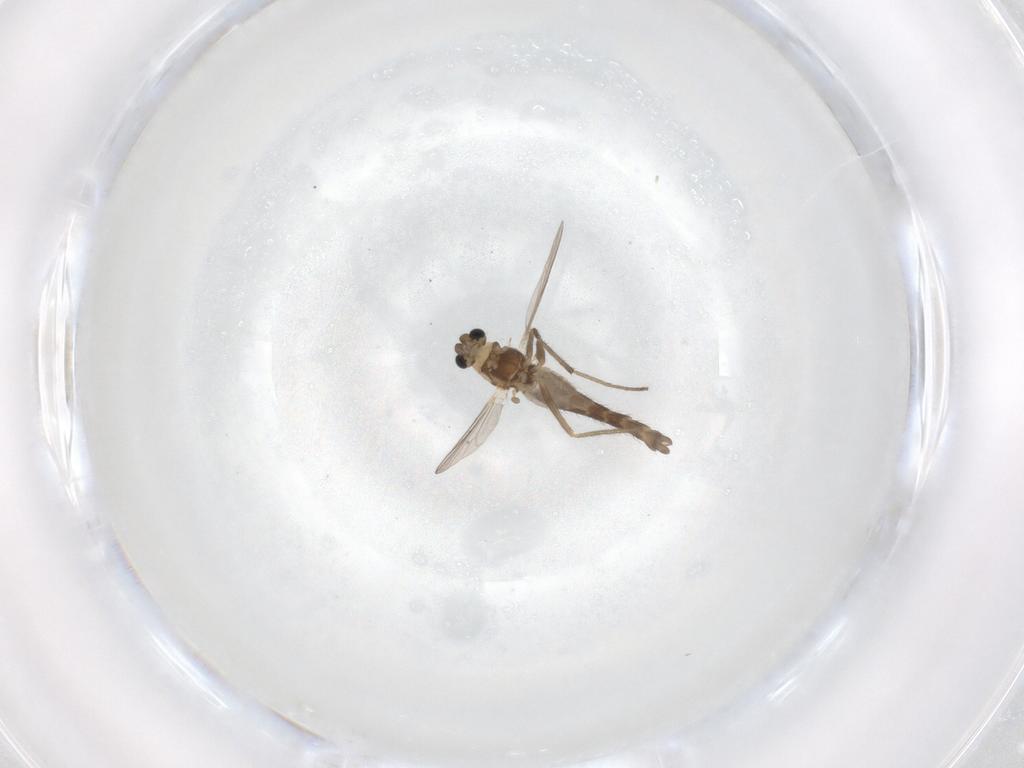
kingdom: Animalia
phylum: Arthropoda
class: Insecta
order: Diptera
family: Chironomidae
